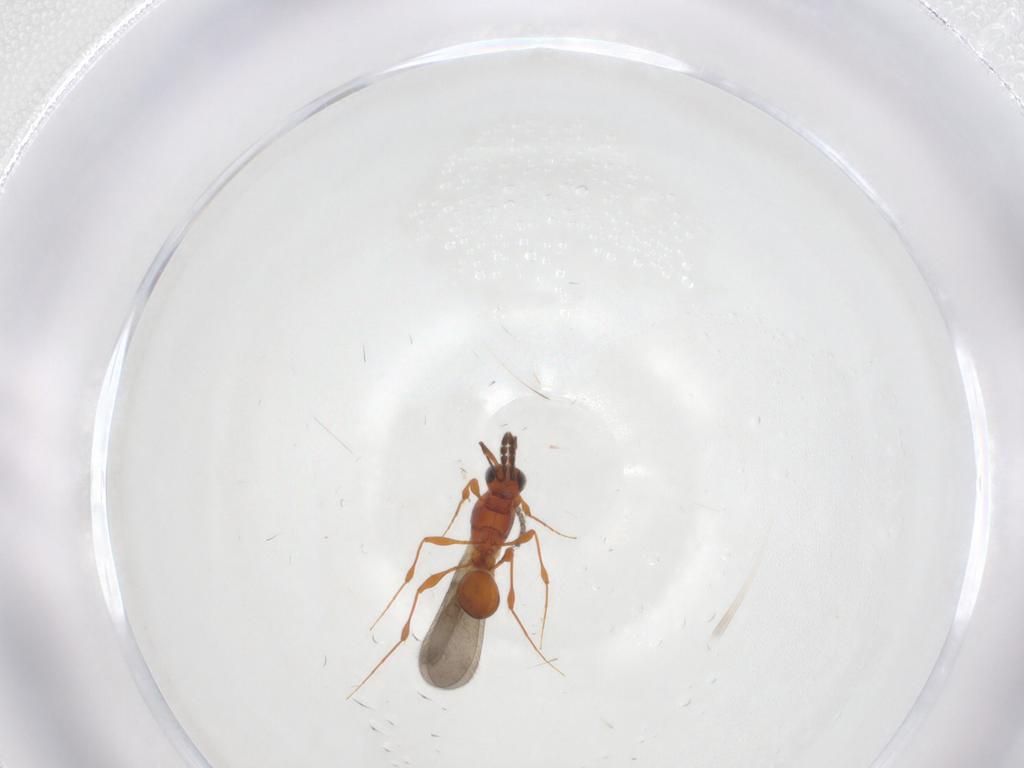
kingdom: Animalia
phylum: Arthropoda
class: Insecta
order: Hymenoptera
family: Platygastridae
